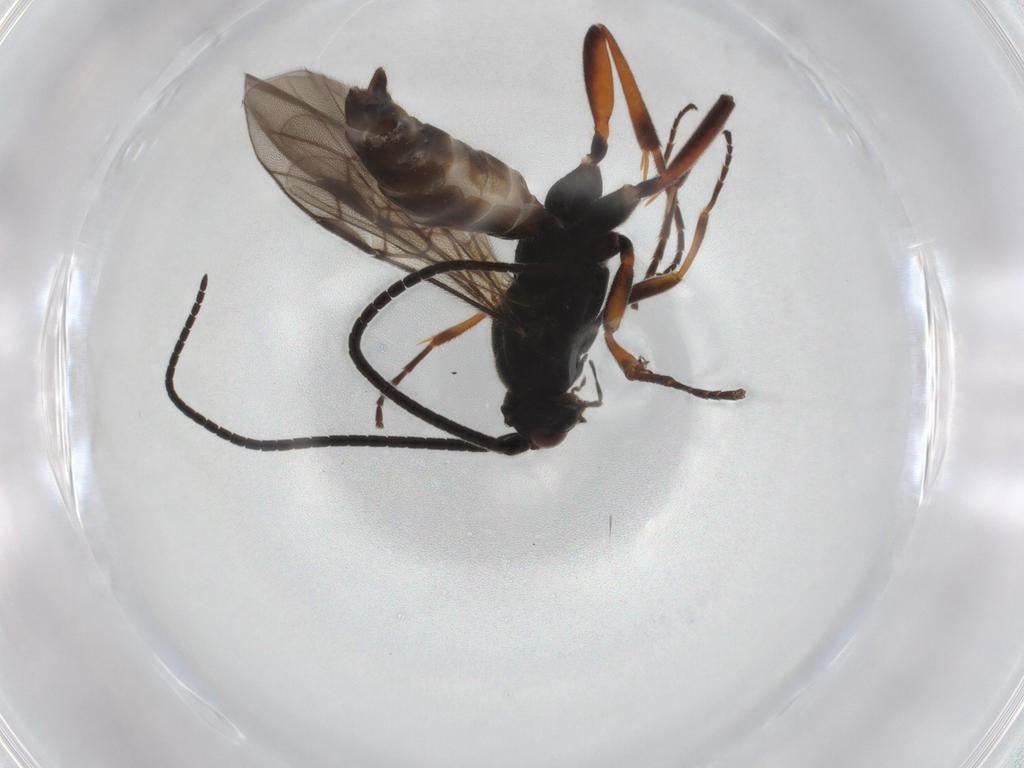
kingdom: Animalia
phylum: Arthropoda
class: Insecta
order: Hymenoptera
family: Braconidae
